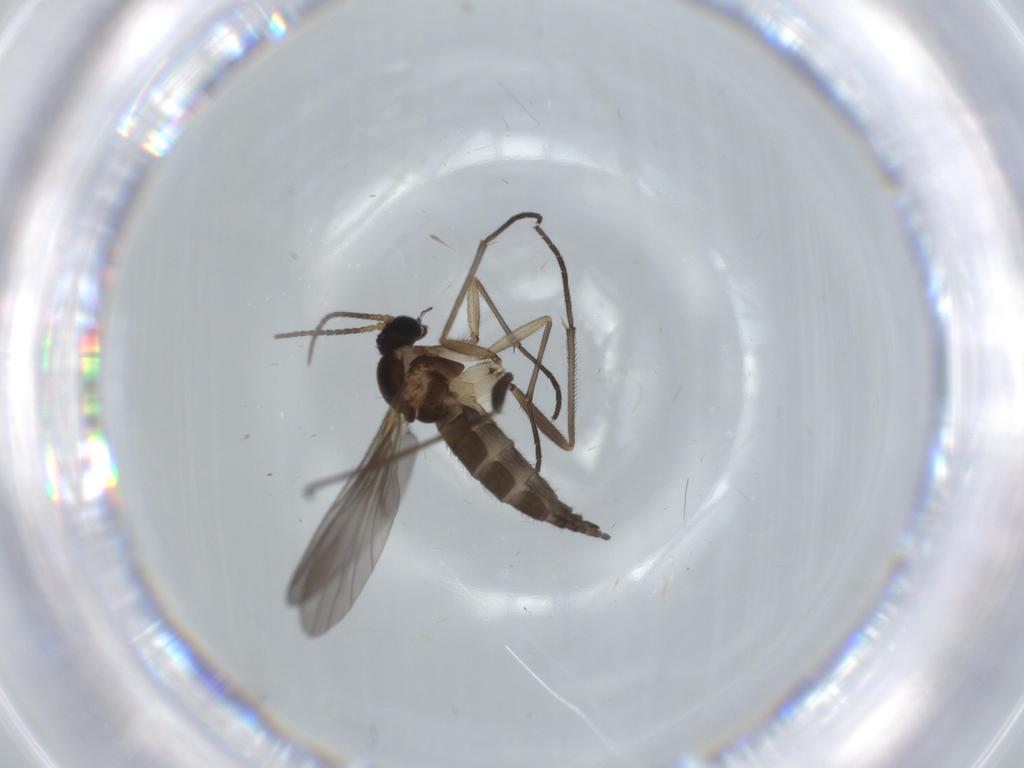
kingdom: Animalia
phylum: Arthropoda
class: Insecta
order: Diptera
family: Sciaridae
